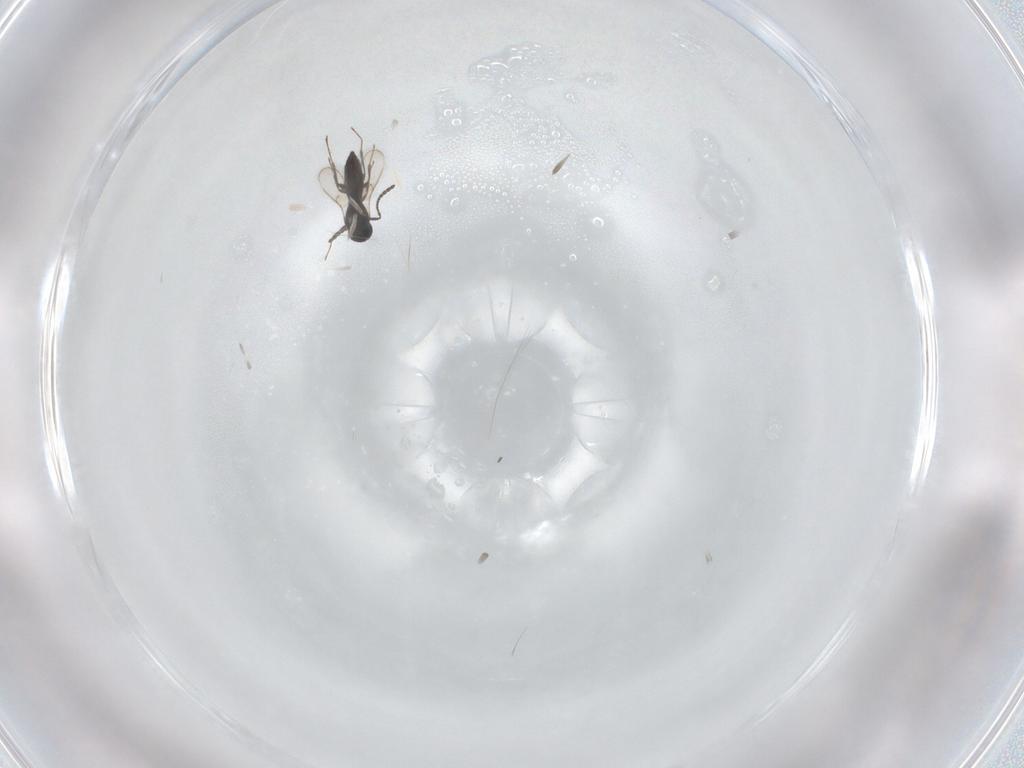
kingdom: Animalia
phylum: Arthropoda
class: Insecta
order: Hymenoptera
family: Scelionidae
